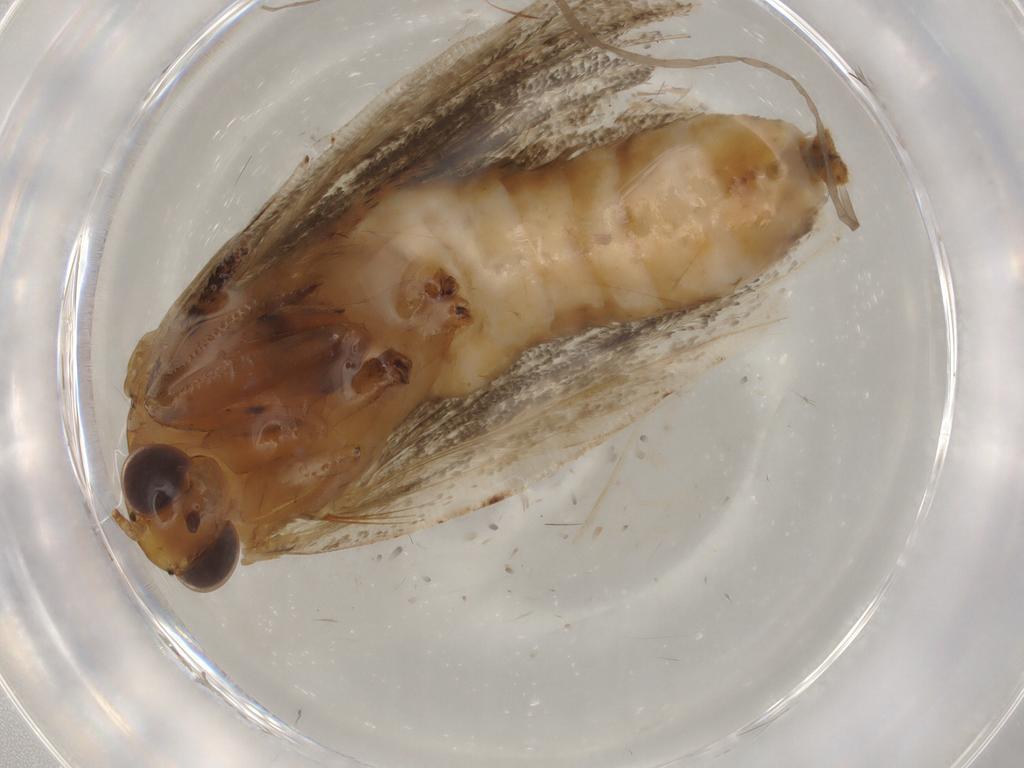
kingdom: Animalia
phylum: Arthropoda
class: Insecta
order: Lepidoptera
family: Tortricidae
